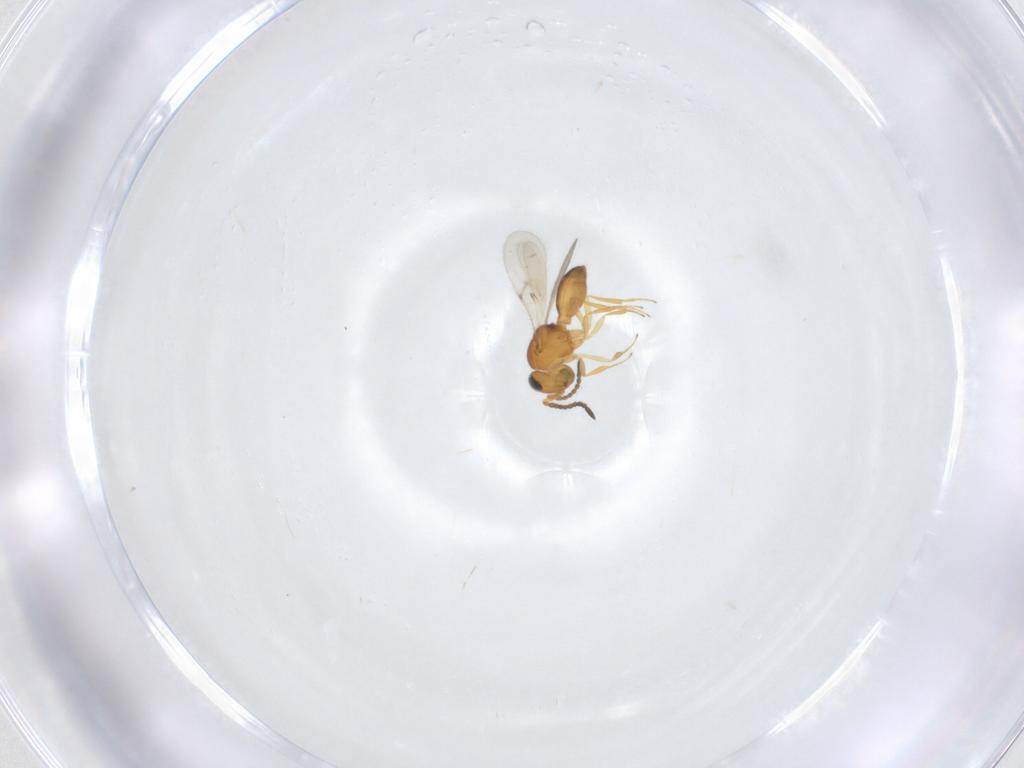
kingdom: Animalia
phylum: Arthropoda
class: Insecta
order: Hymenoptera
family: Scelionidae
